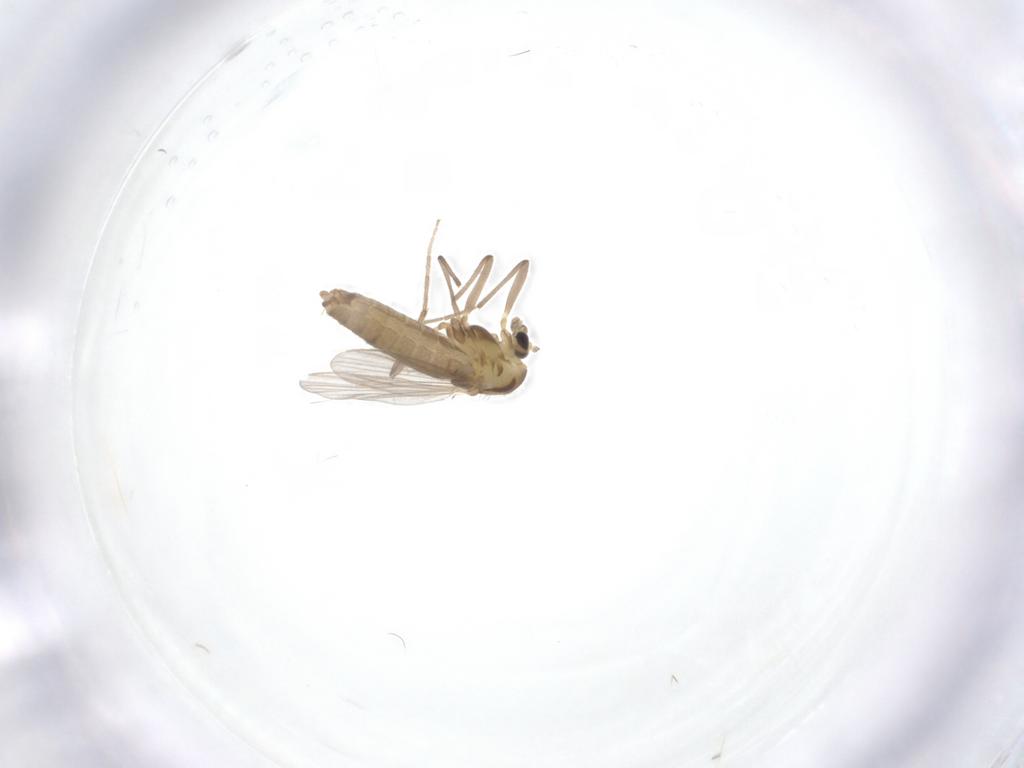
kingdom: Animalia
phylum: Arthropoda
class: Insecta
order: Diptera
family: Chironomidae
